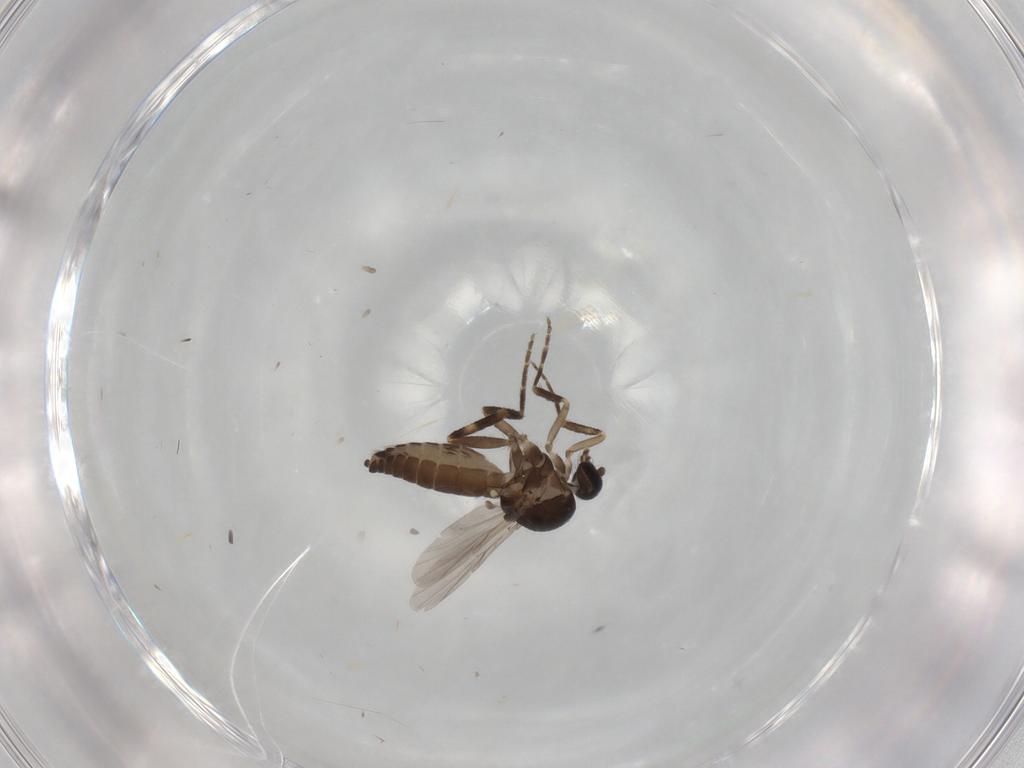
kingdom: Animalia
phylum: Arthropoda
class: Insecta
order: Diptera
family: Ceratopogonidae
